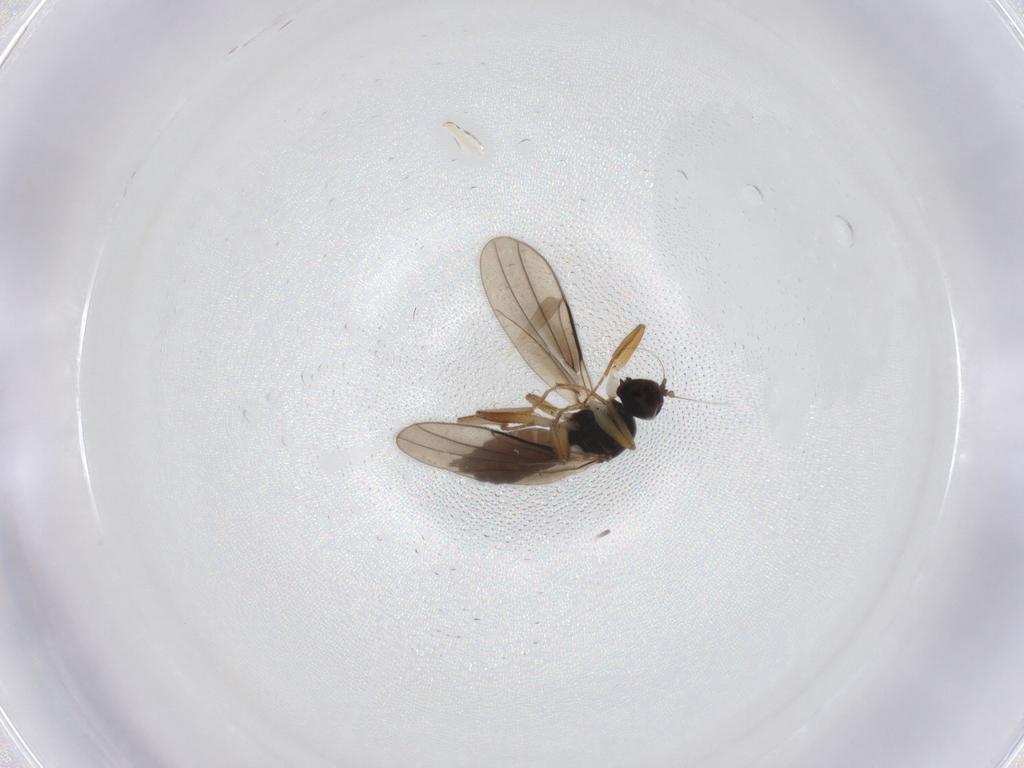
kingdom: Animalia
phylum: Arthropoda
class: Insecta
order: Diptera
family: Hybotidae
